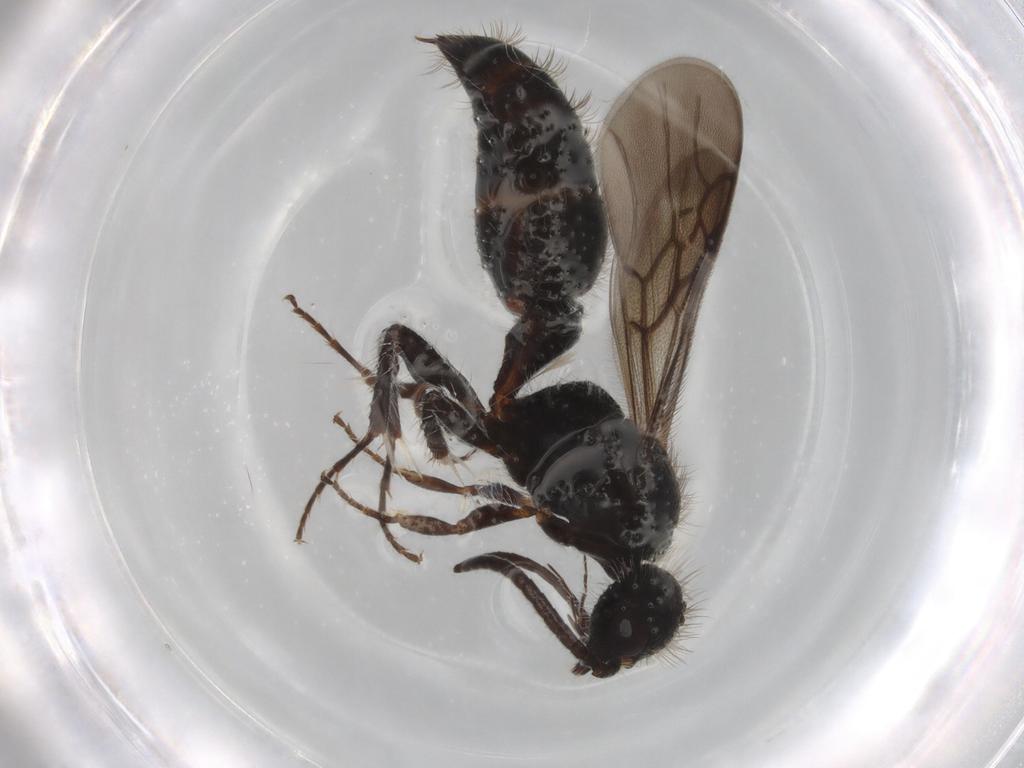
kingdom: Animalia
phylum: Arthropoda
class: Insecta
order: Hymenoptera
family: Mutillidae
